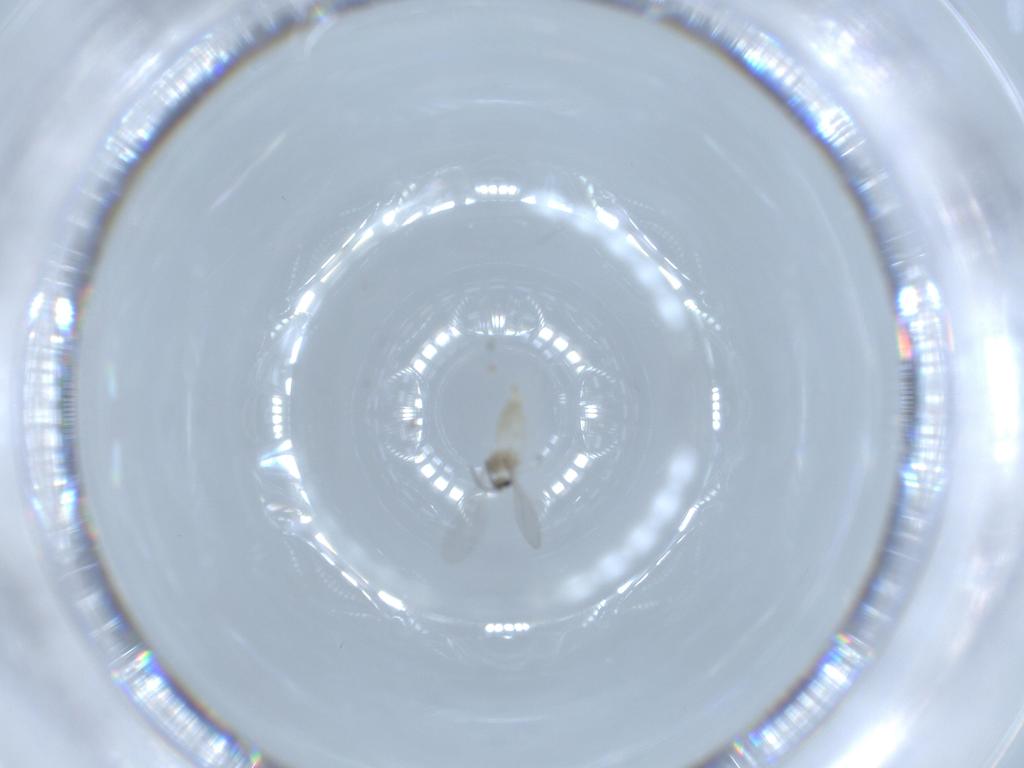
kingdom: Animalia
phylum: Arthropoda
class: Insecta
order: Diptera
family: Cecidomyiidae
